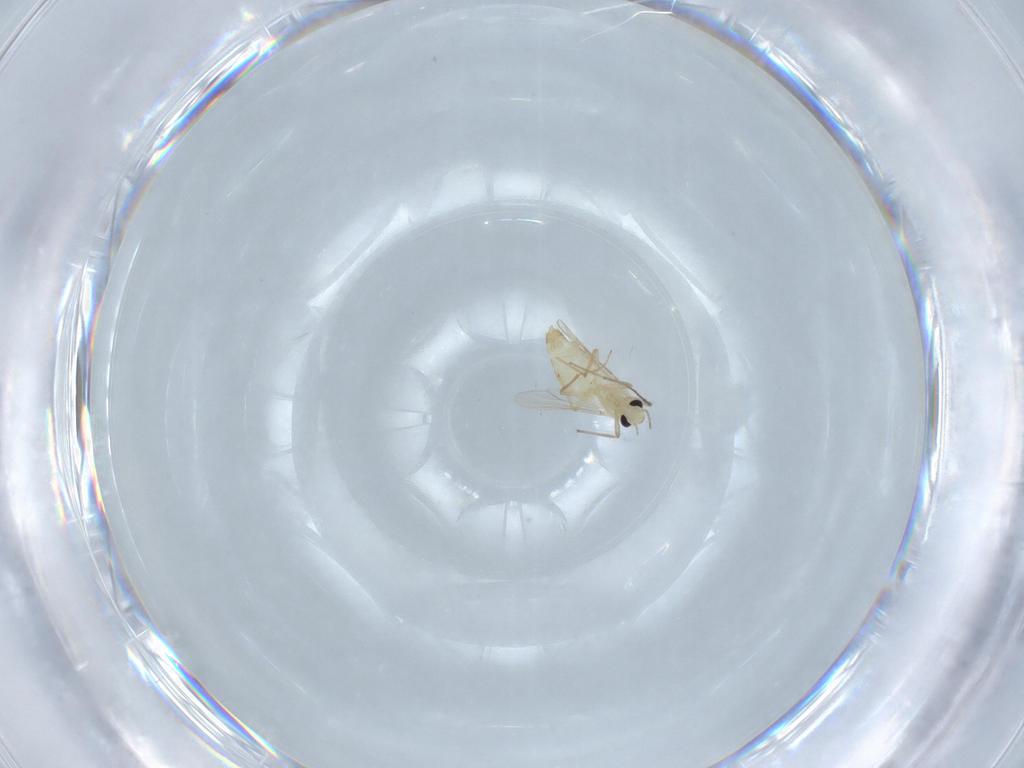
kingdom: Animalia
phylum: Arthropoda
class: Insecta
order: Diptera
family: Chironomidae
